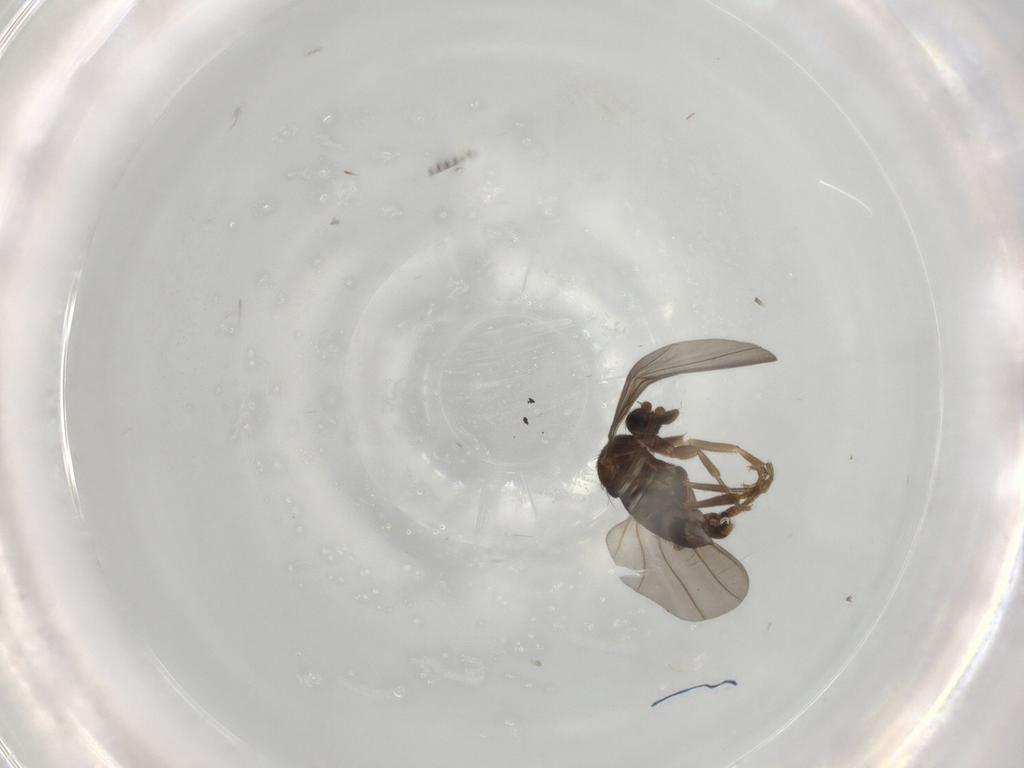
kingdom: Animalia
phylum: Arthropoda
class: Insecta
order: Diptera
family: Phoridae
